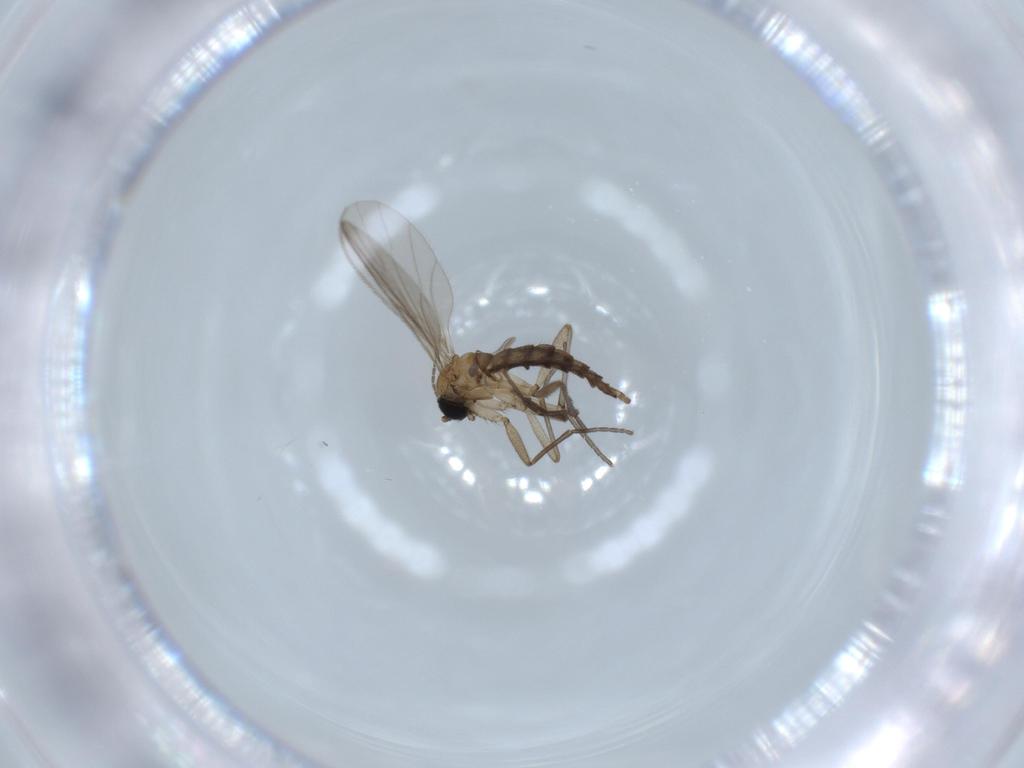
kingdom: Animalia
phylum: Arthropoda
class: Insecta
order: Diptera
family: Sciaridae
